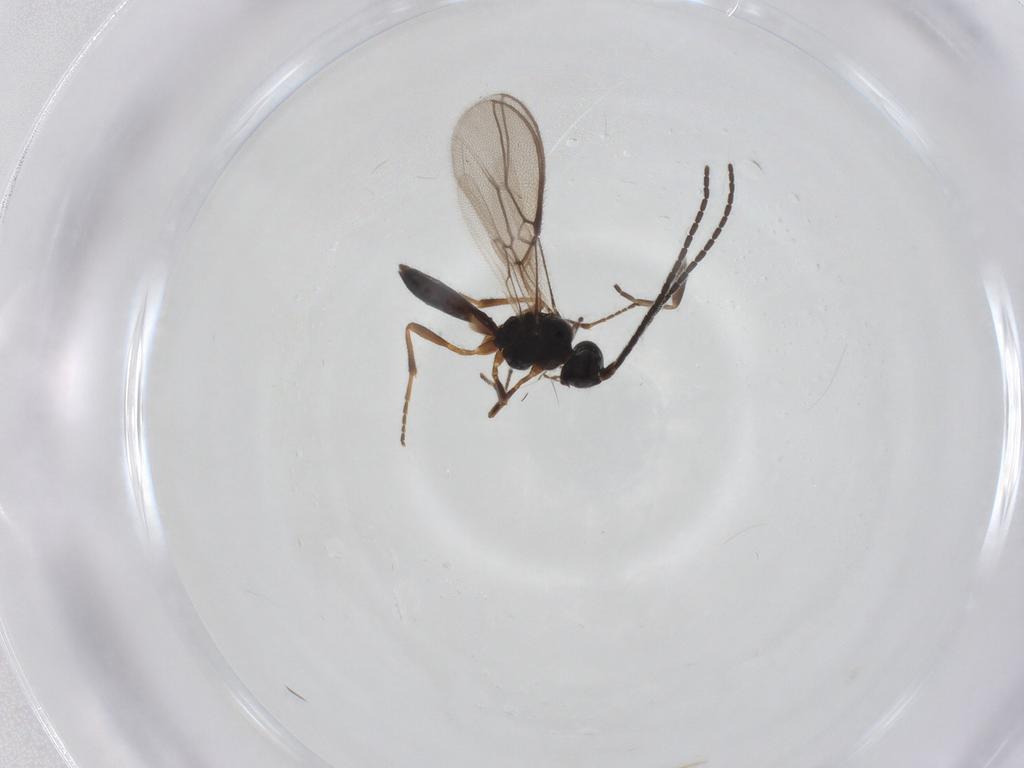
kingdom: Animalia
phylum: Arthropoda
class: Insecta
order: Hymenoptera
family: Braconidae
